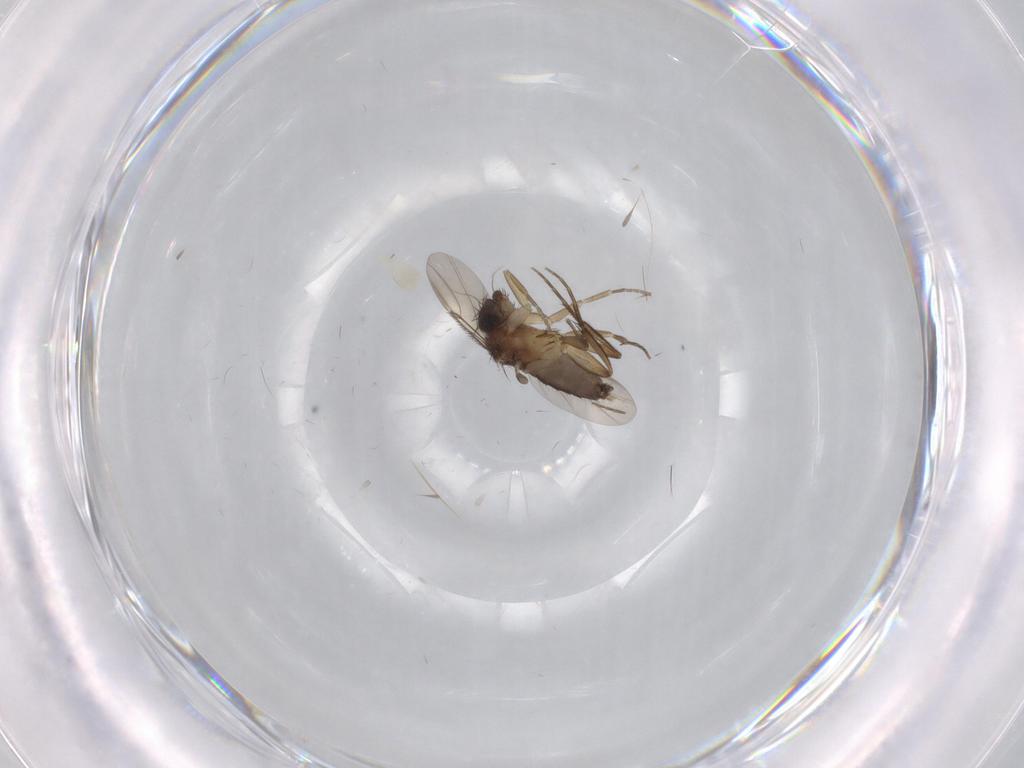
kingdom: Animalia
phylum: Arthropoda
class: Insecta
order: Diptera
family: Phoridae
